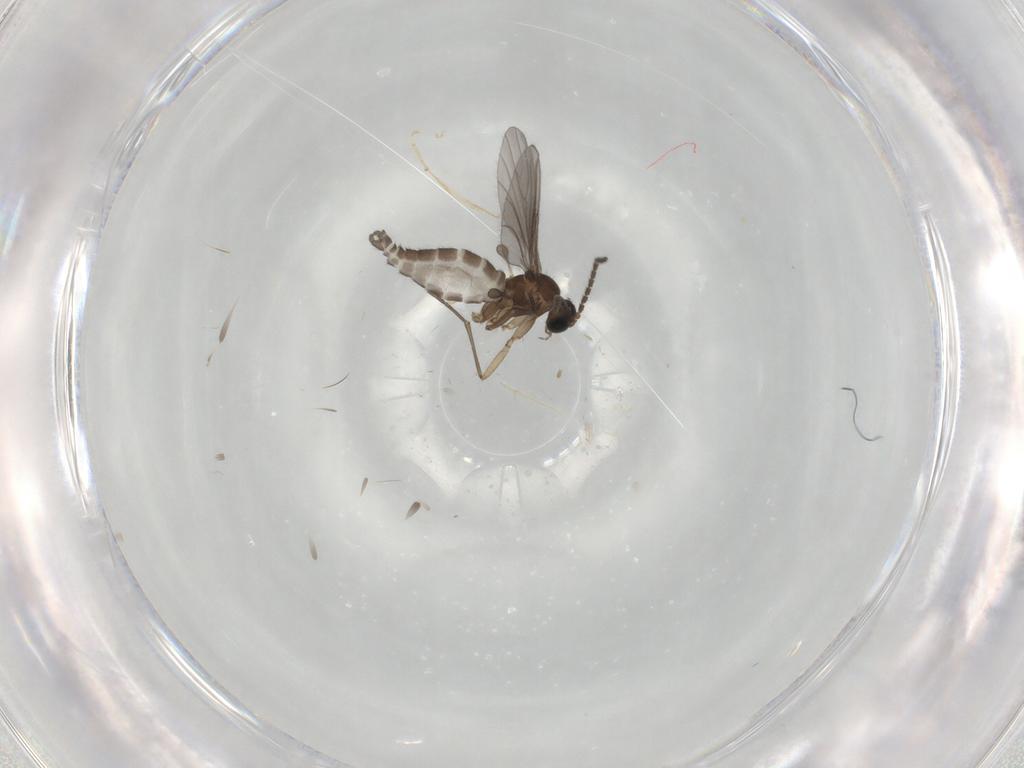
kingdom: Animalia
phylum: Arthropoda
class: Insecta
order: Diptera
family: Sciaridae
